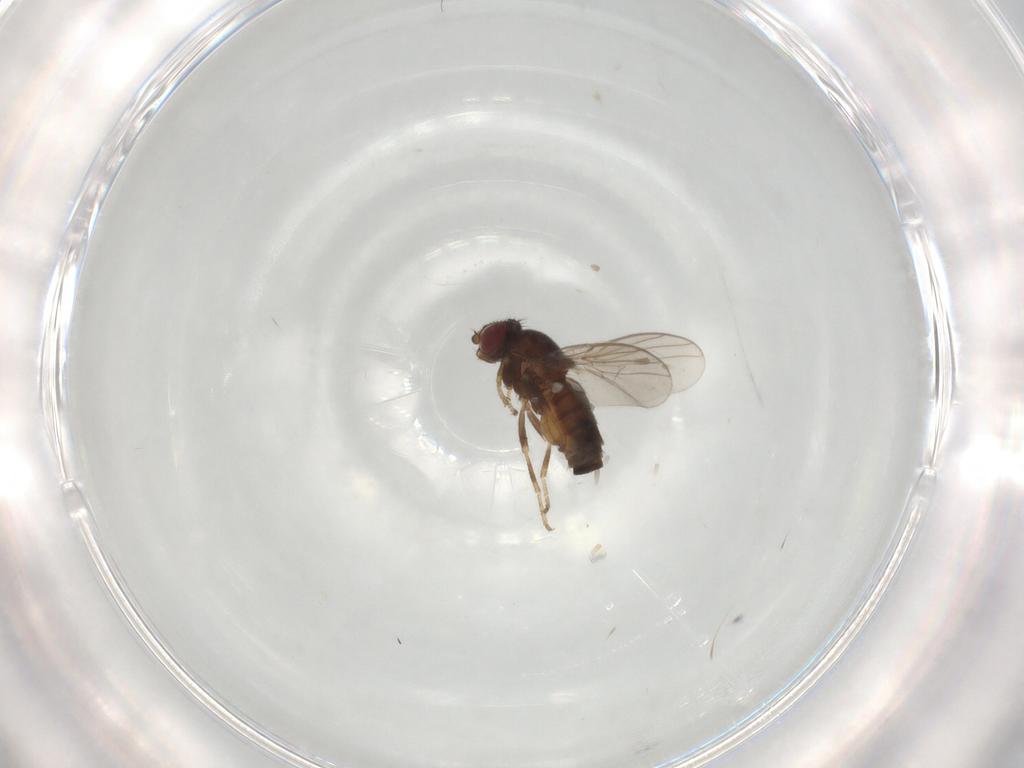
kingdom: Animalia
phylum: Arthropoda
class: Insecta
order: Diptera
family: Chloropidae
